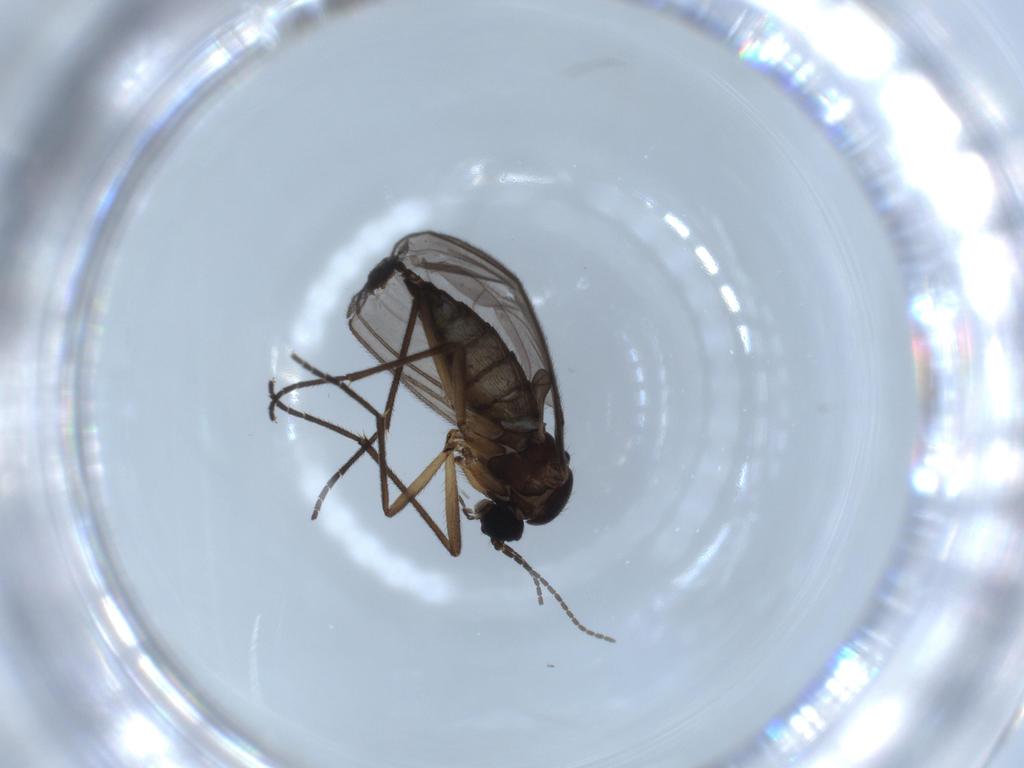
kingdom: Animalia
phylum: Arthropoda
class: Insecta
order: Diptera
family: Sciaridae
